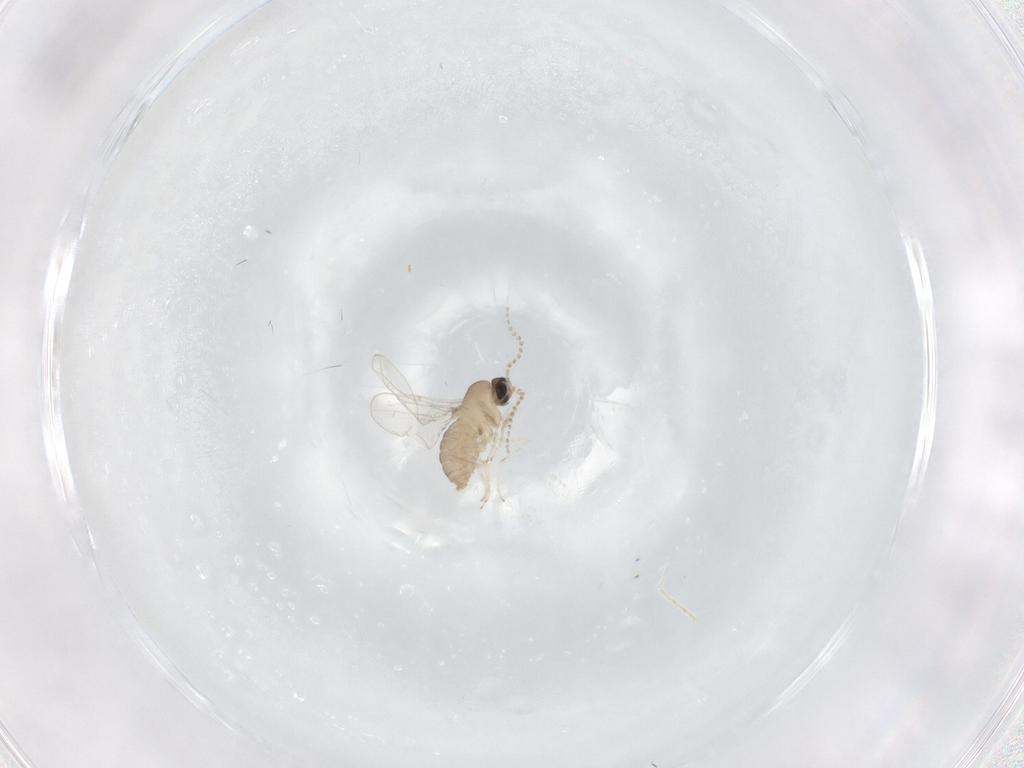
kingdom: Animalia
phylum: Arthropoda
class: Insecta
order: Diptera
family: Cecidomyiidae
